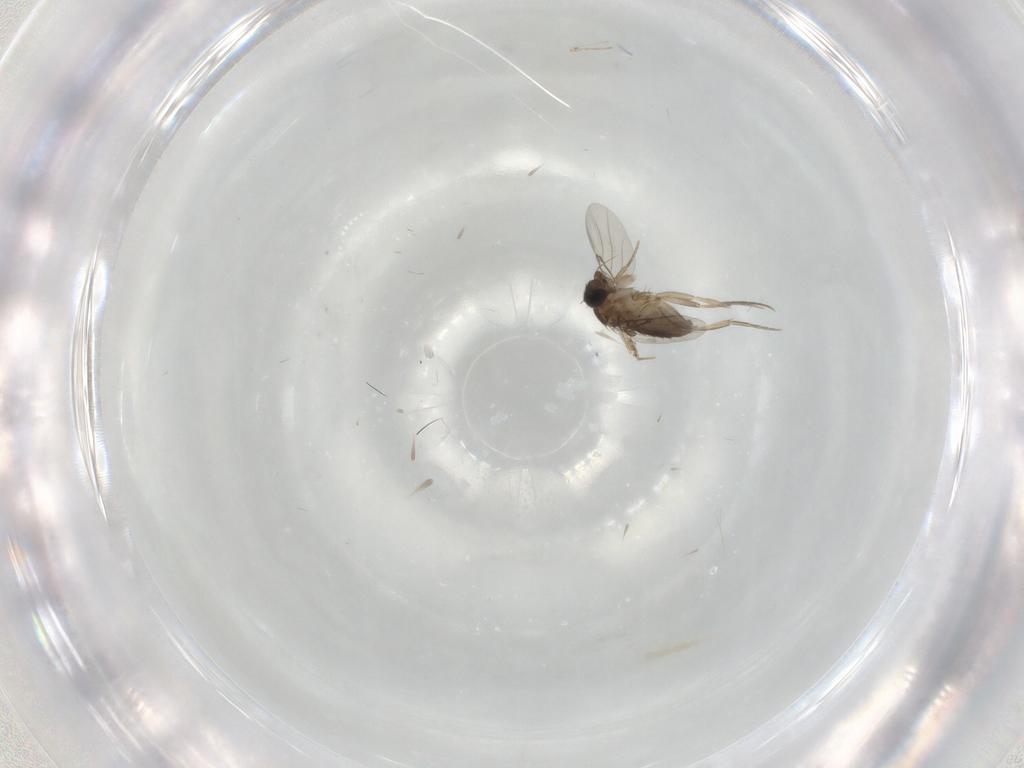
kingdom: Animalia
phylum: Arthropoda
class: Insecta
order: Diptera
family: Phoridae
